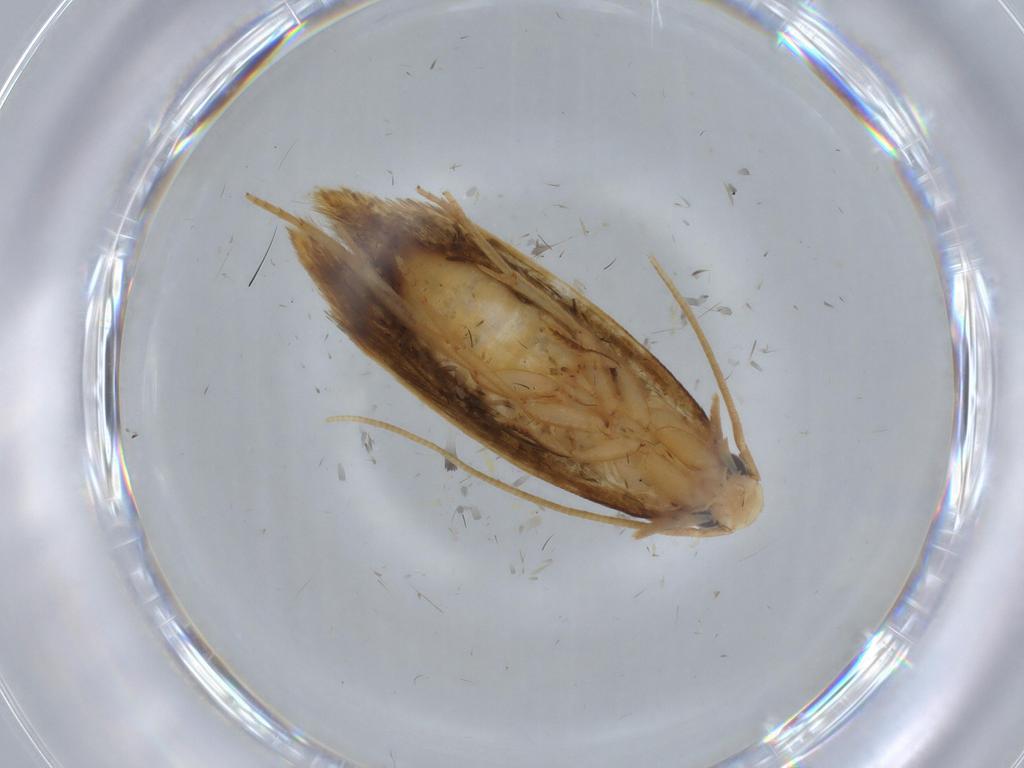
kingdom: Animalia
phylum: Arthropoda
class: Insecta
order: Lepidoptera
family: Tineidae
